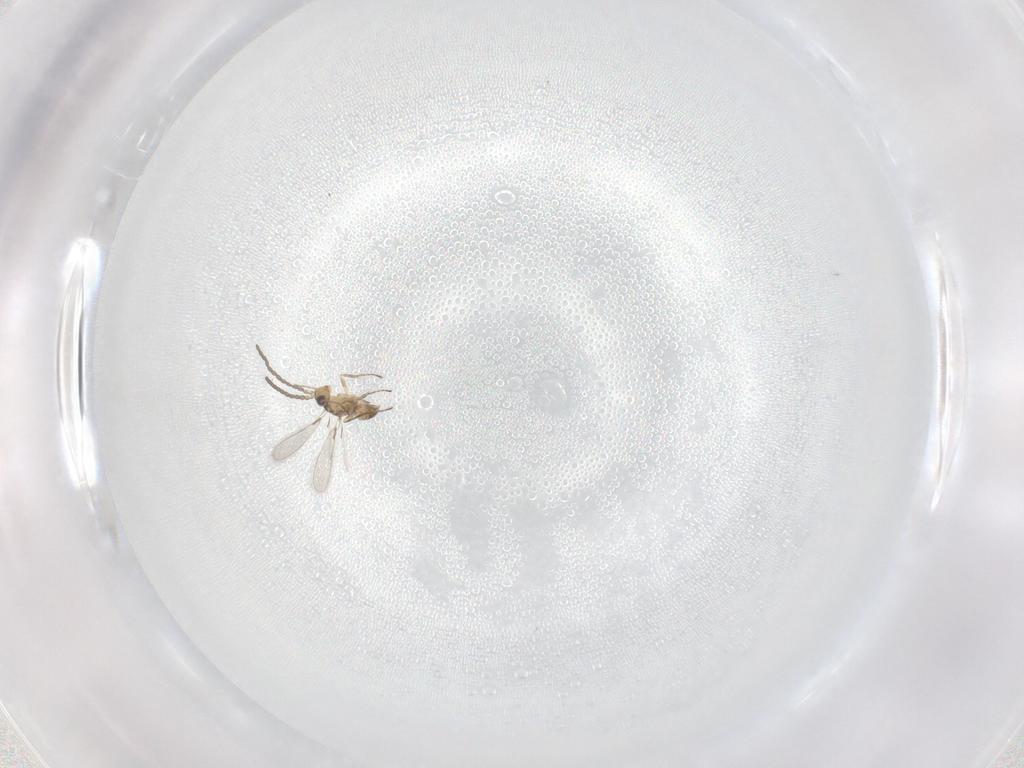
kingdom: Animalia
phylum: Arthropoda
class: Insecta
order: Hymenoptera
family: Mymaridae
